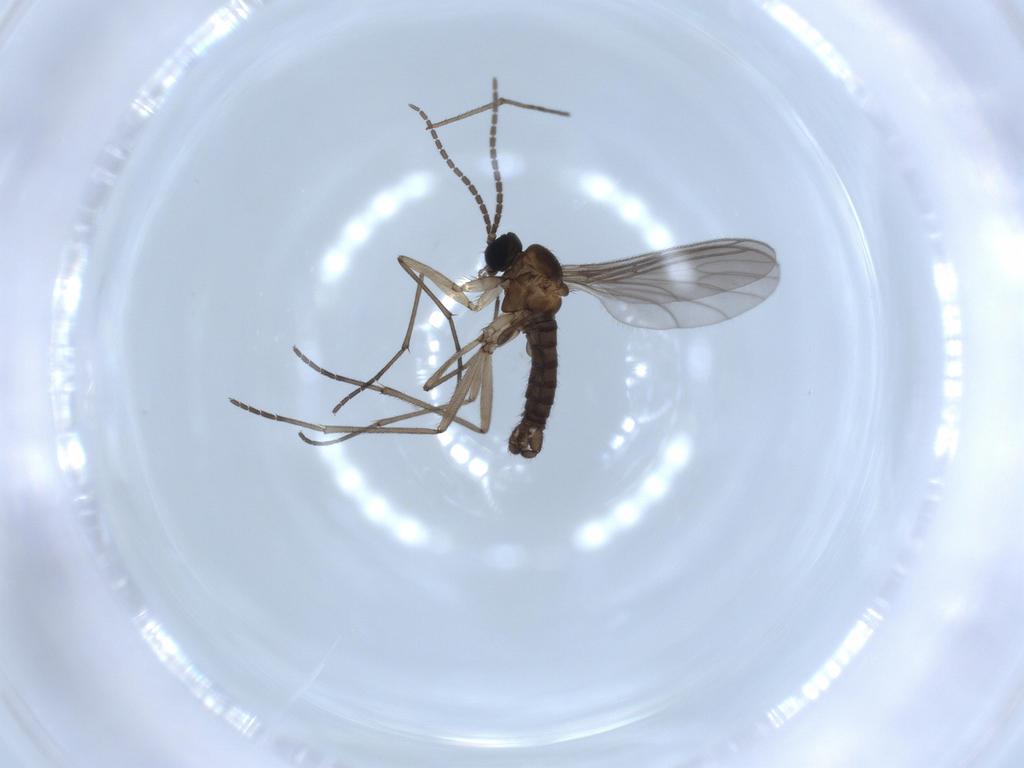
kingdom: Animalia
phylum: Arthropoda
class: Insecta
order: Diptera
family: Sciaridae
